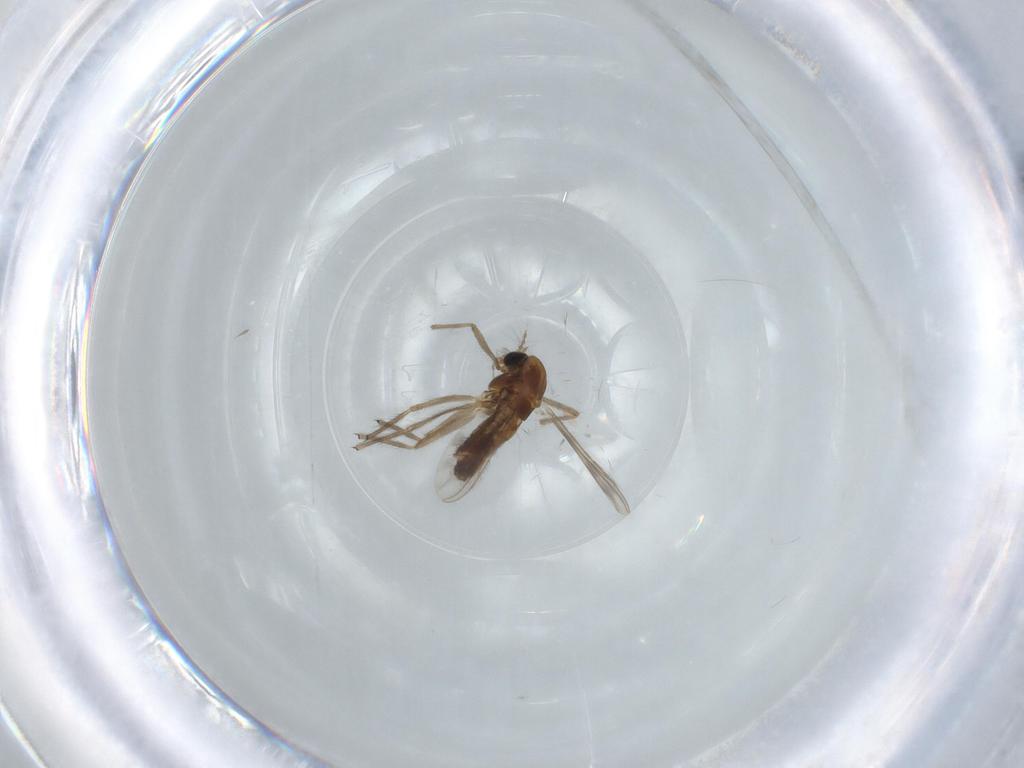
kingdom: Animalia
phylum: Arthropoda
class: Insecta
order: Diptera
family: Chironomidae
